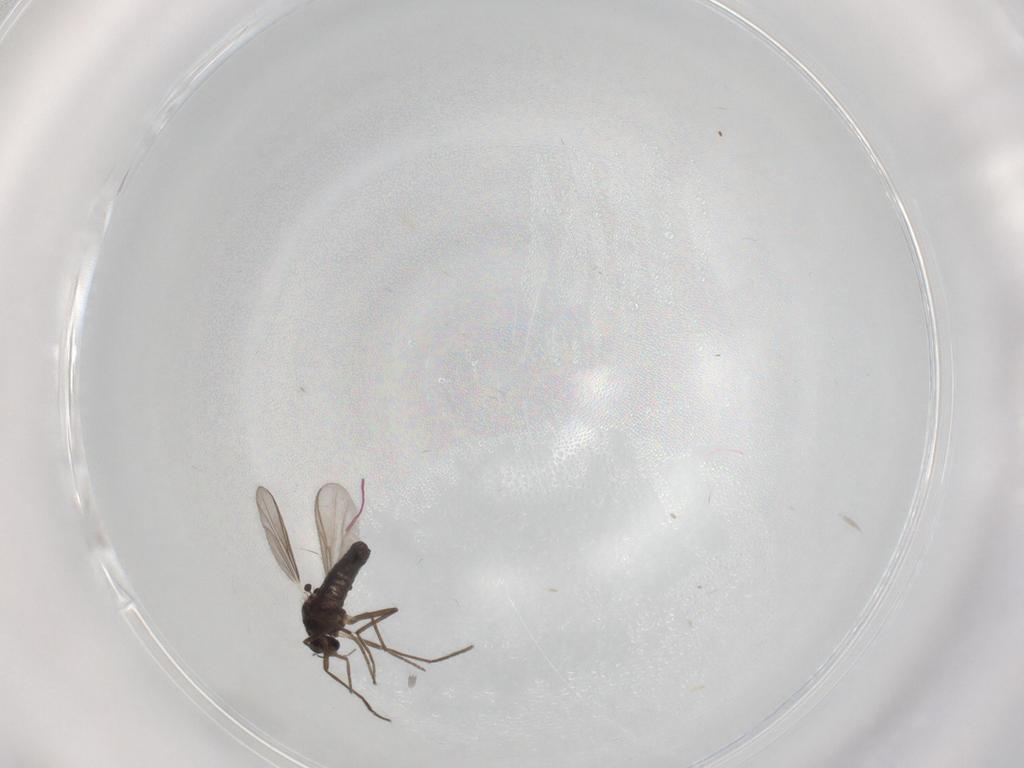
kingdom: Animalia
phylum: Arthropoda
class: Insecta
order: Diptera
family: Chironomidae
